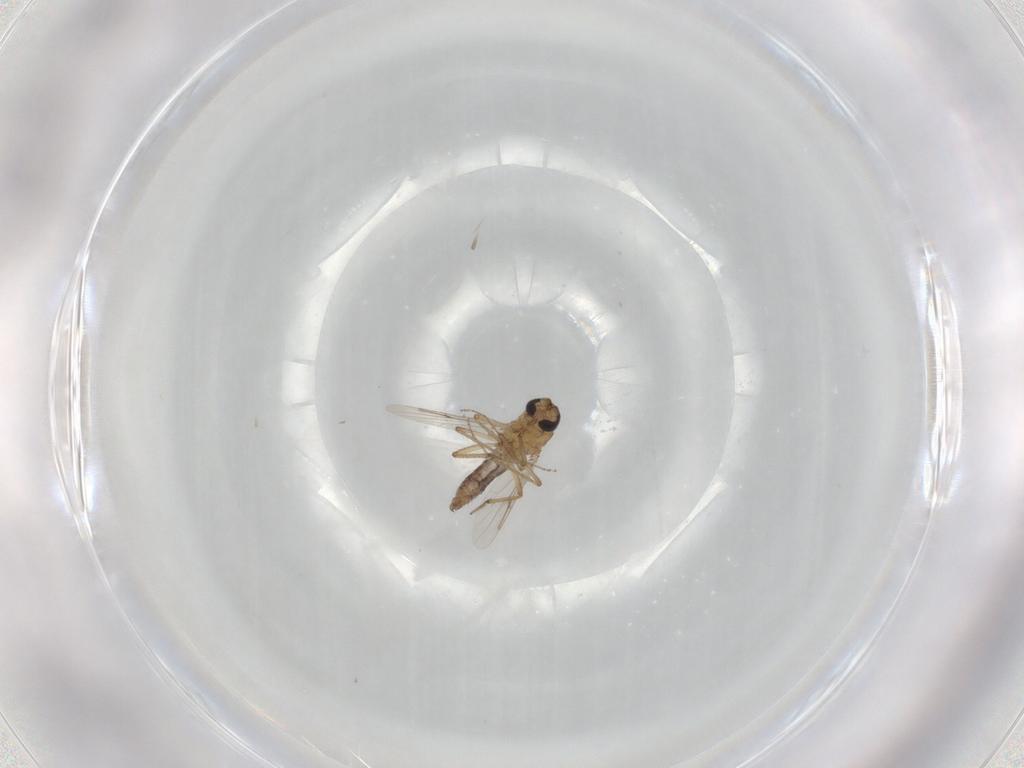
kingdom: Animalia
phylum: Arthropoda
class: Insecta
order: Diptera
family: Ceratopogonidae
